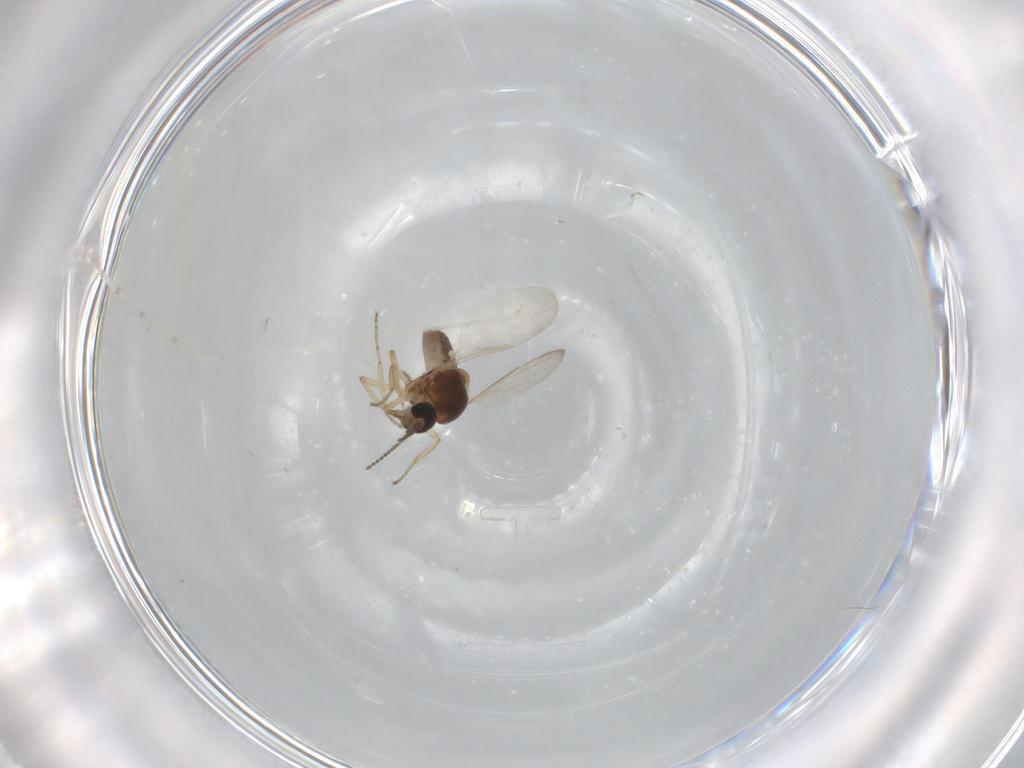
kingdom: Animalia
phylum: Arthropoda
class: Insecta
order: Diptera
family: Ceratopogonidae
